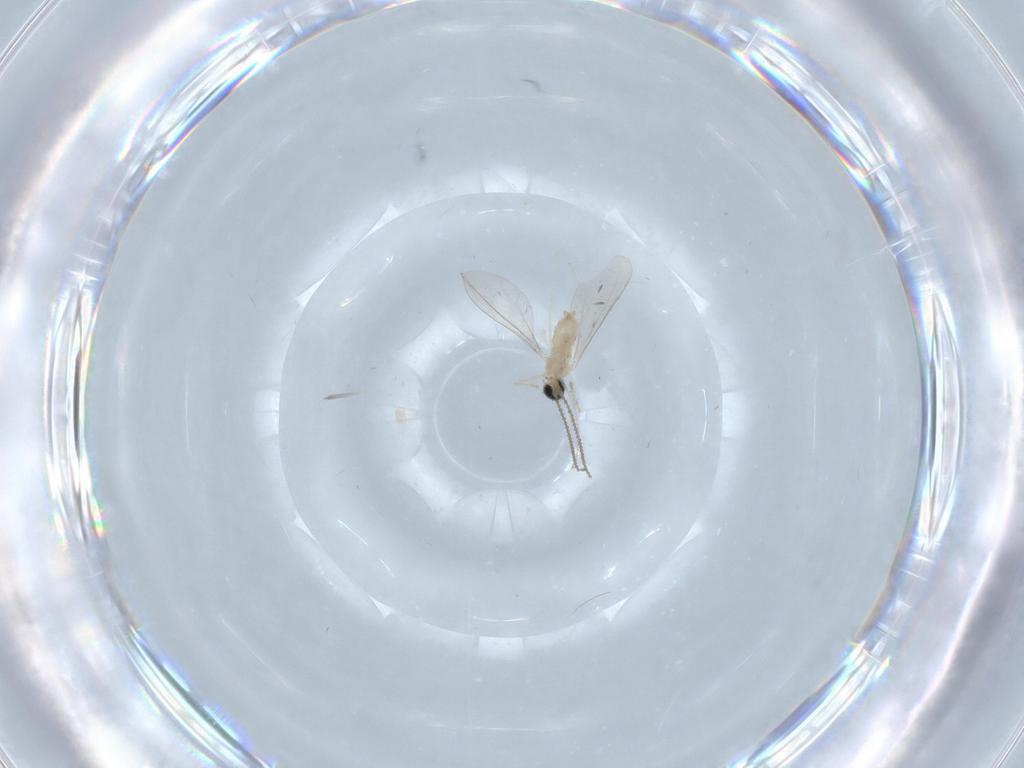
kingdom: Animalia
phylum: Arthropoda
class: Insecta
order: Diptera
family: Cecidomyiidae
